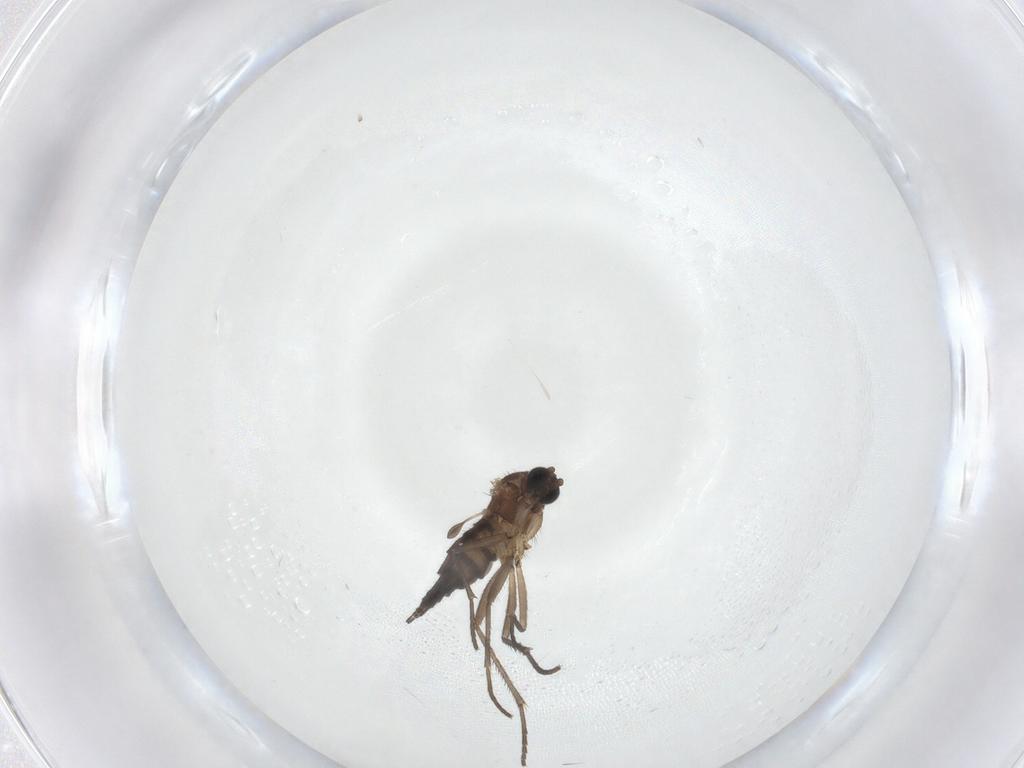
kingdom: Animalia
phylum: Arthropoda
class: Insecta
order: Diptera
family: Sciaridae
